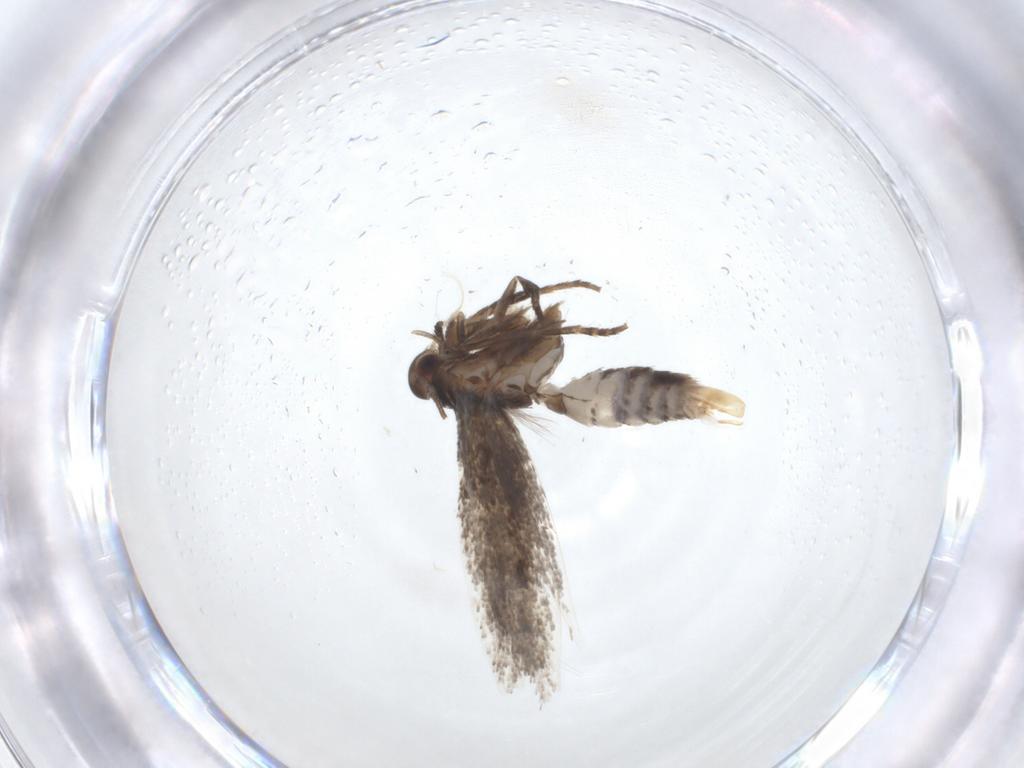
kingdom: Animalia
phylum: Arthropoda
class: Insecta
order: Lepidoptera
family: Elachistidae
